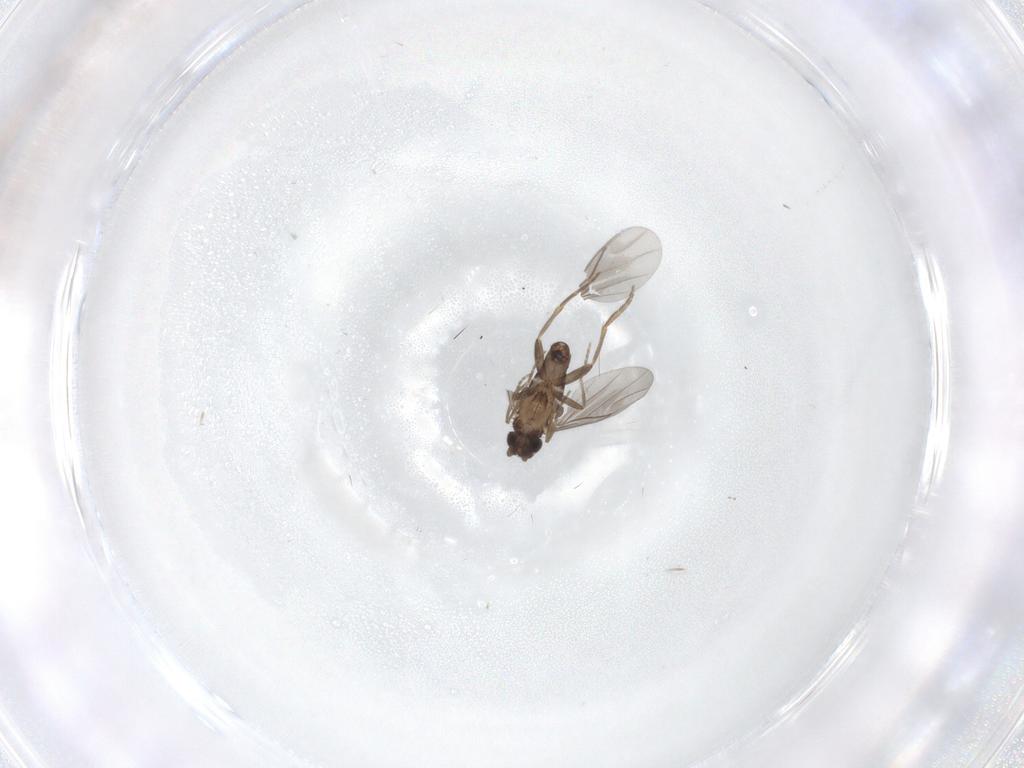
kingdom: Animalia
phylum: Arthropoda
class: Insecta
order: Diptera
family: Chironomidae
